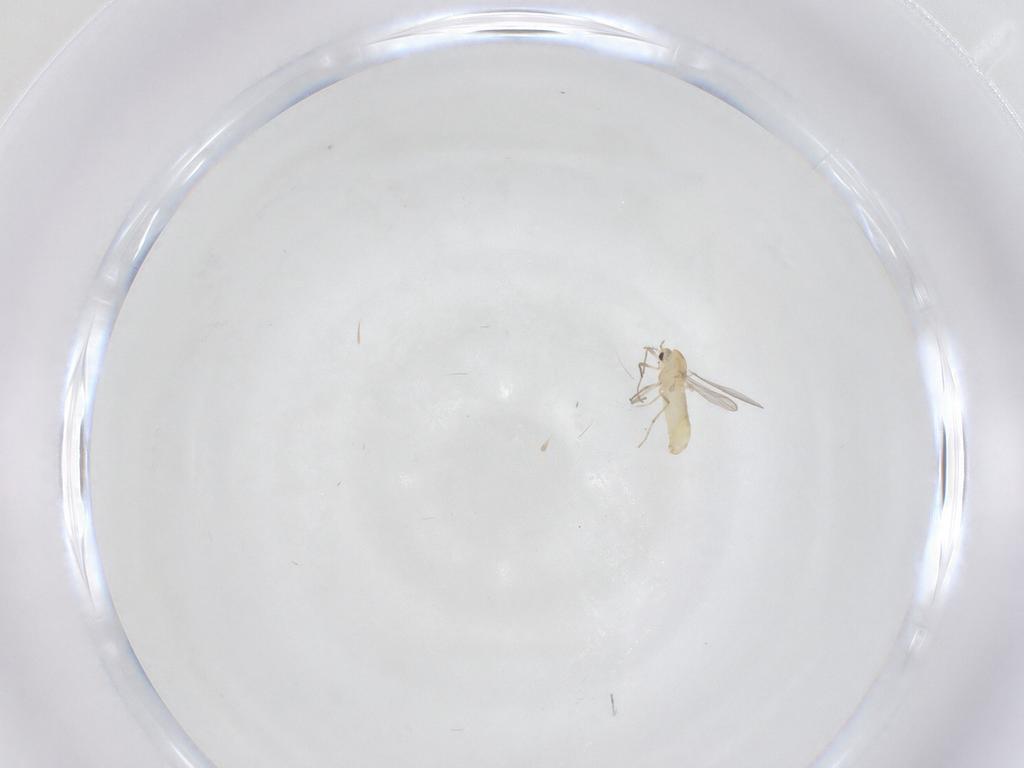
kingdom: Animalia
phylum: Arthropoda
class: Insecta
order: Diptera
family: Chironomidae
